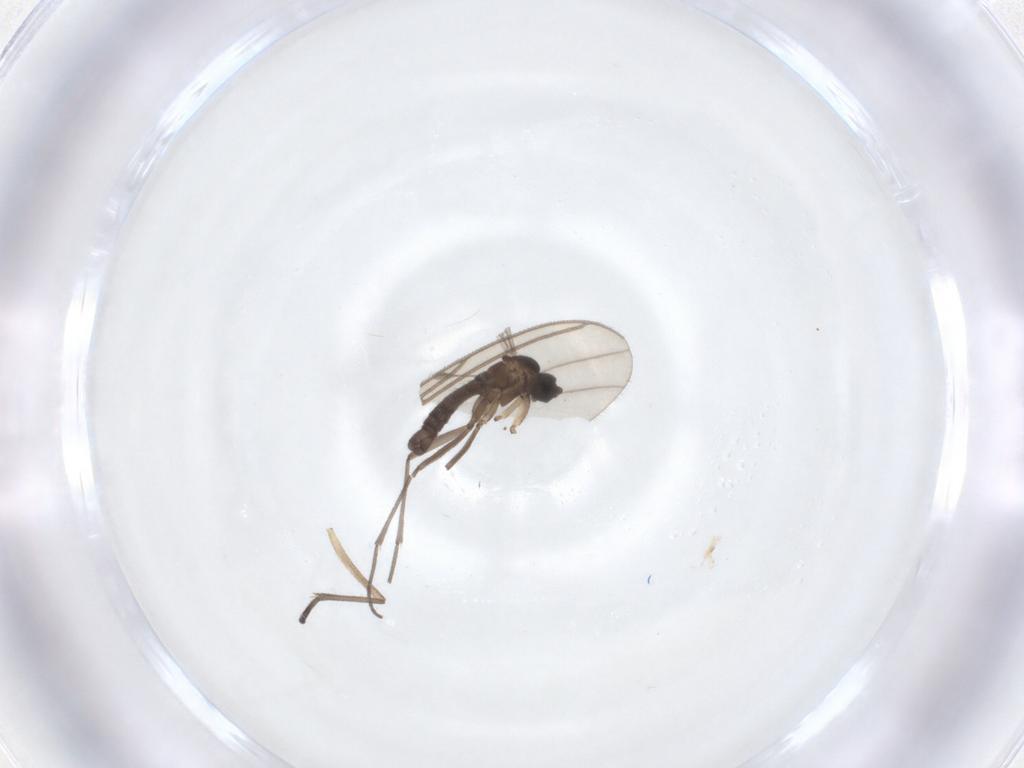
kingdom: Animalia
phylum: Arthropoda
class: Insecta
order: Diptera
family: Sciaridae
